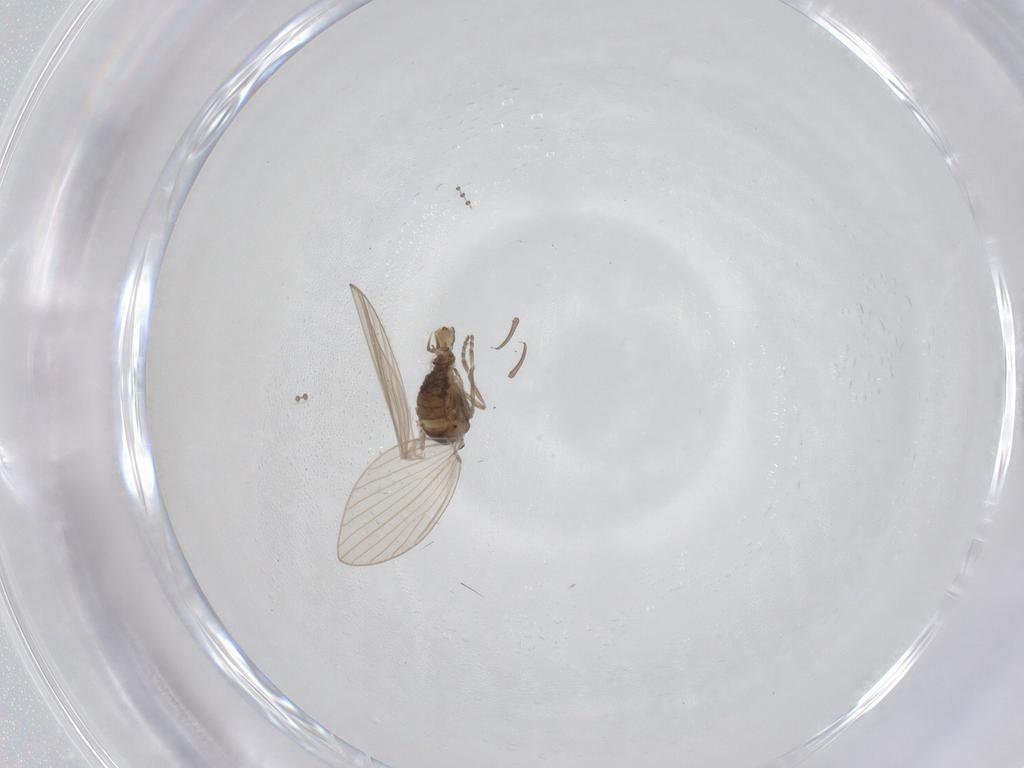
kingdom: Animalia
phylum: Arthropoda
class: Insecta
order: Diptera
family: Psychodidae
